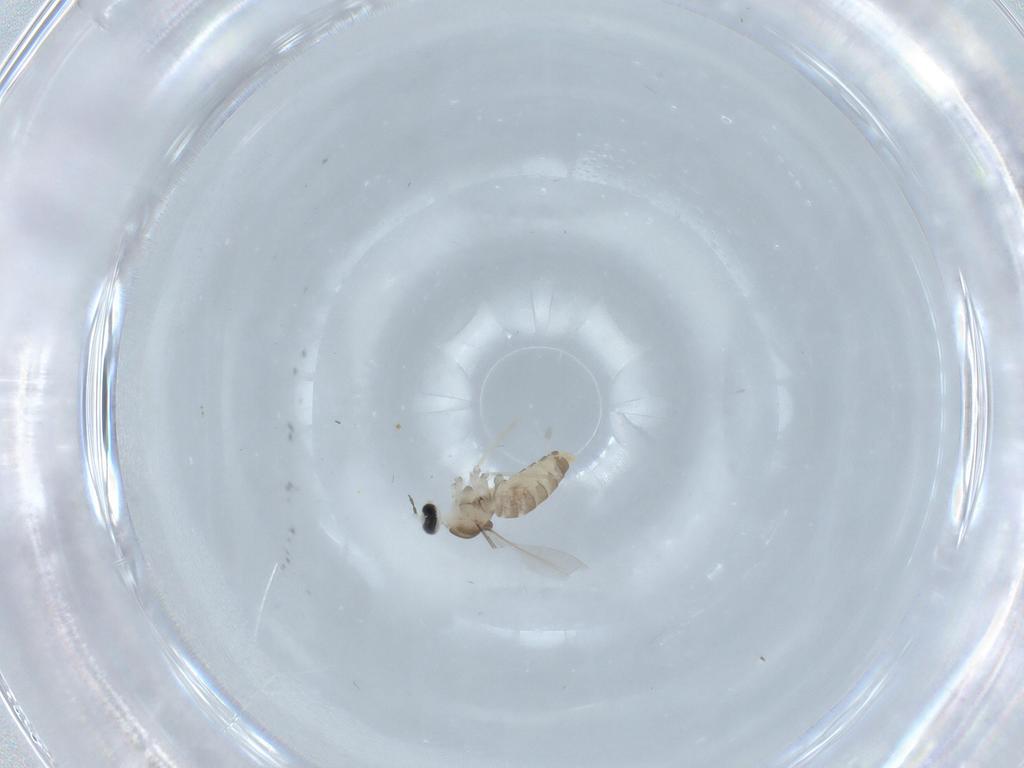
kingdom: Animalia
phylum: Arthropoda
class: Insecta
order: Diptera
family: Cecidomyiidae
